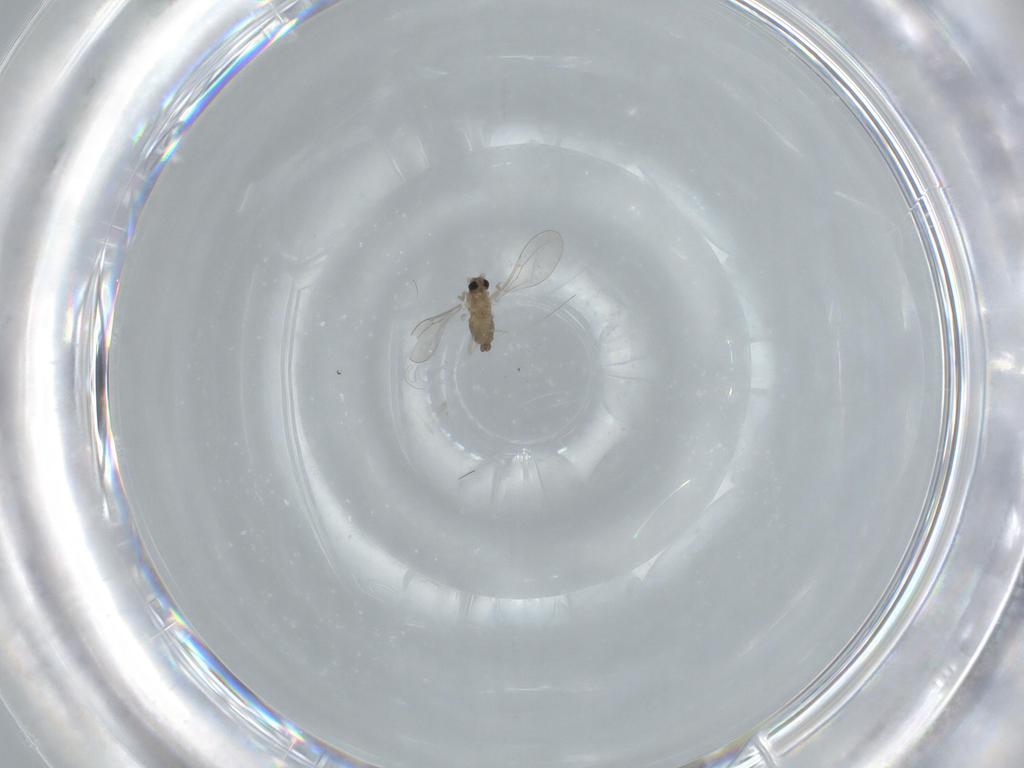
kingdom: Animalia
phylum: Arthropoda
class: Insecta
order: Diptera
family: Cecidomyiidae
